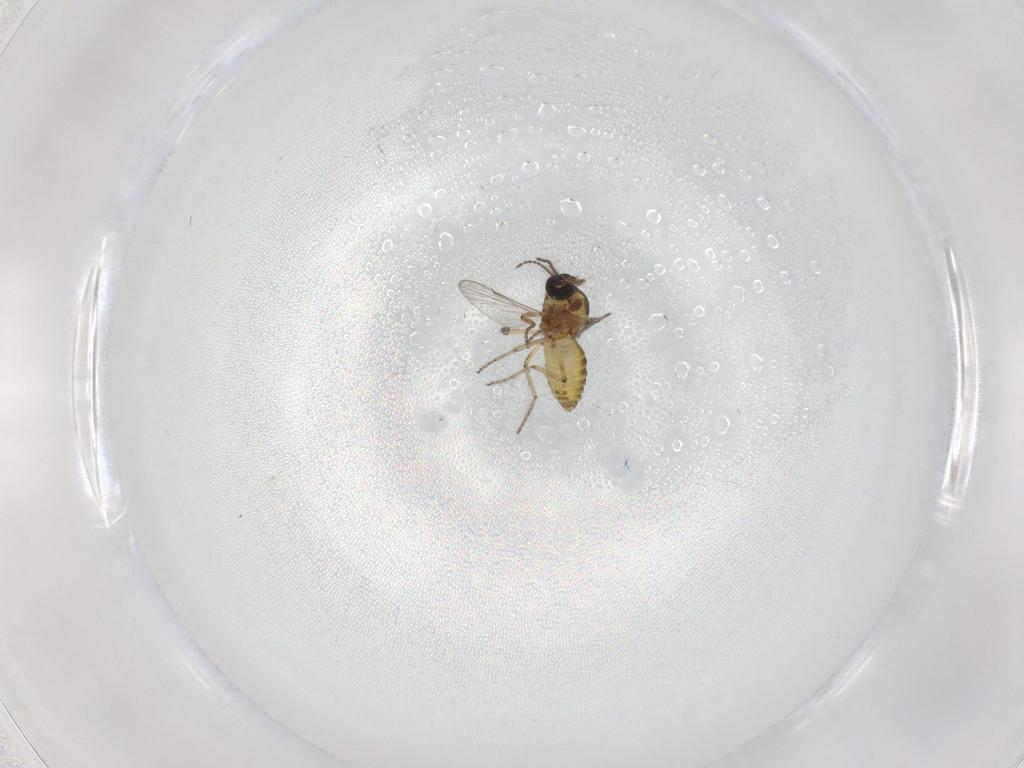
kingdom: Animalia
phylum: Arthropoda
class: Insecta
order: Diptera
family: Ceratopogonidae
